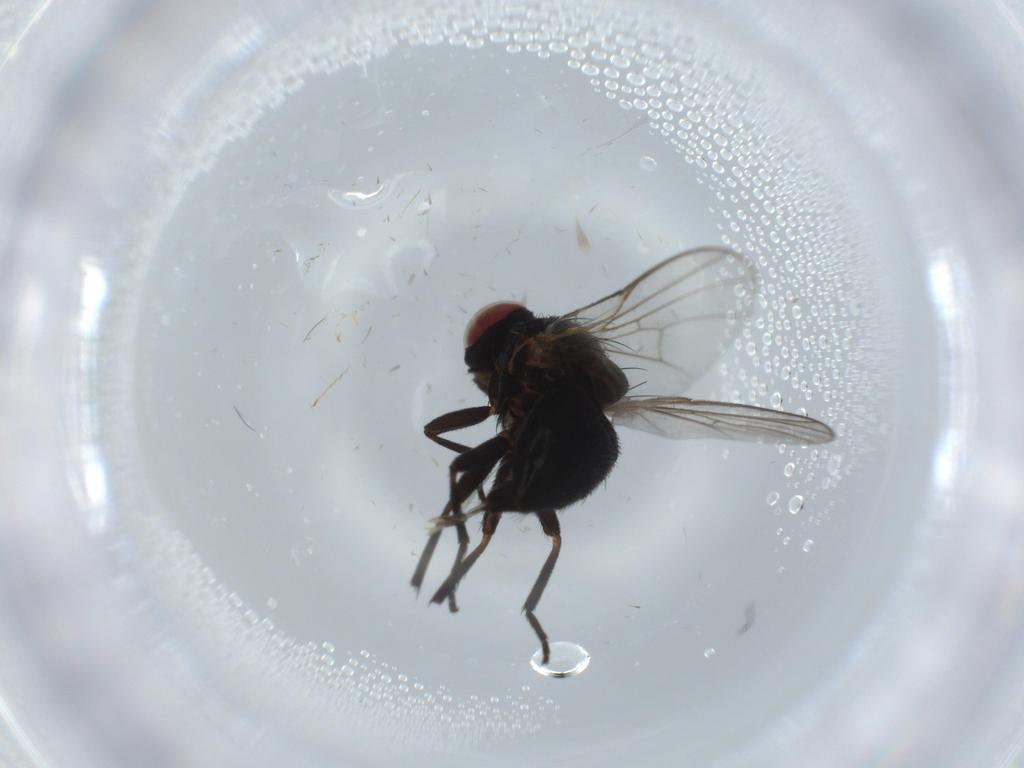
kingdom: Animalia
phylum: Arthropoda
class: Insecta
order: Diptera
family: Agromyzidae
